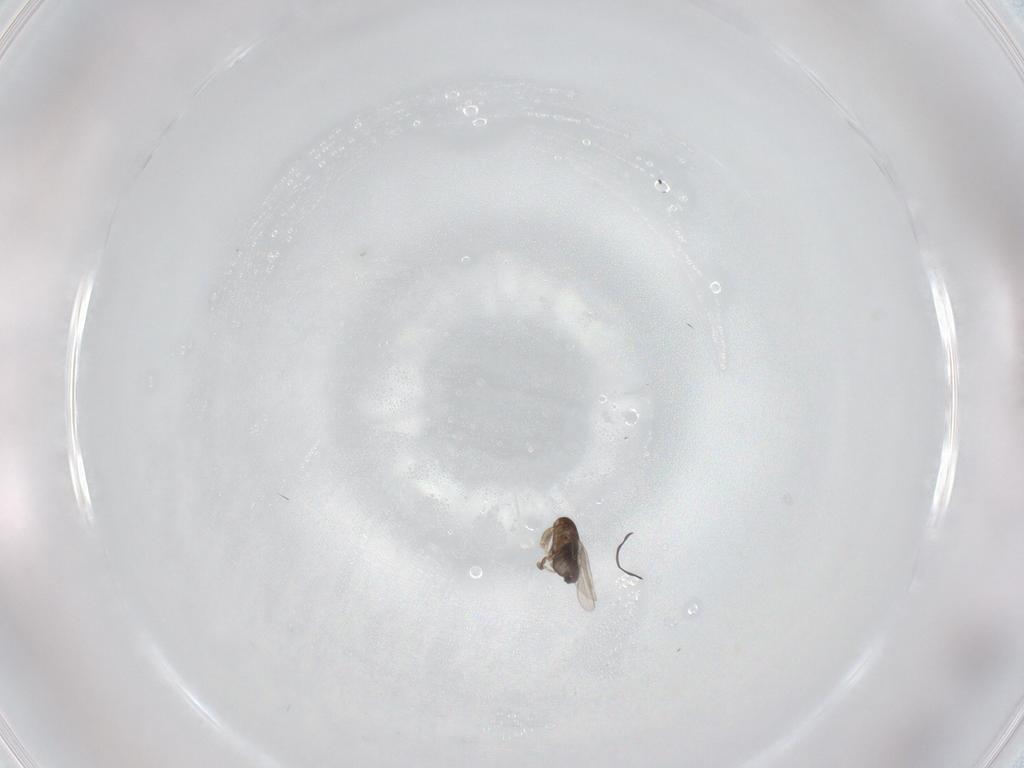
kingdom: Animalia
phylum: Arthropoda
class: Insecta
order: Diptera
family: Phoridae
